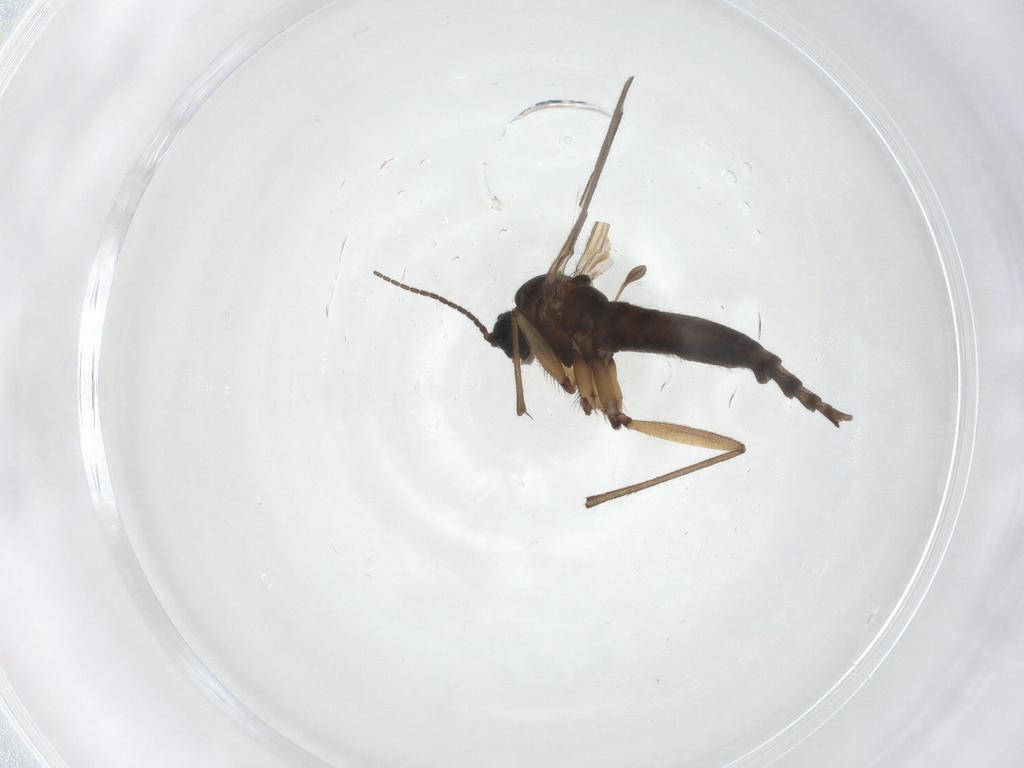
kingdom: Animalia
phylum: Arthropoda
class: Insecta
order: Diptera
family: Sciaridae
